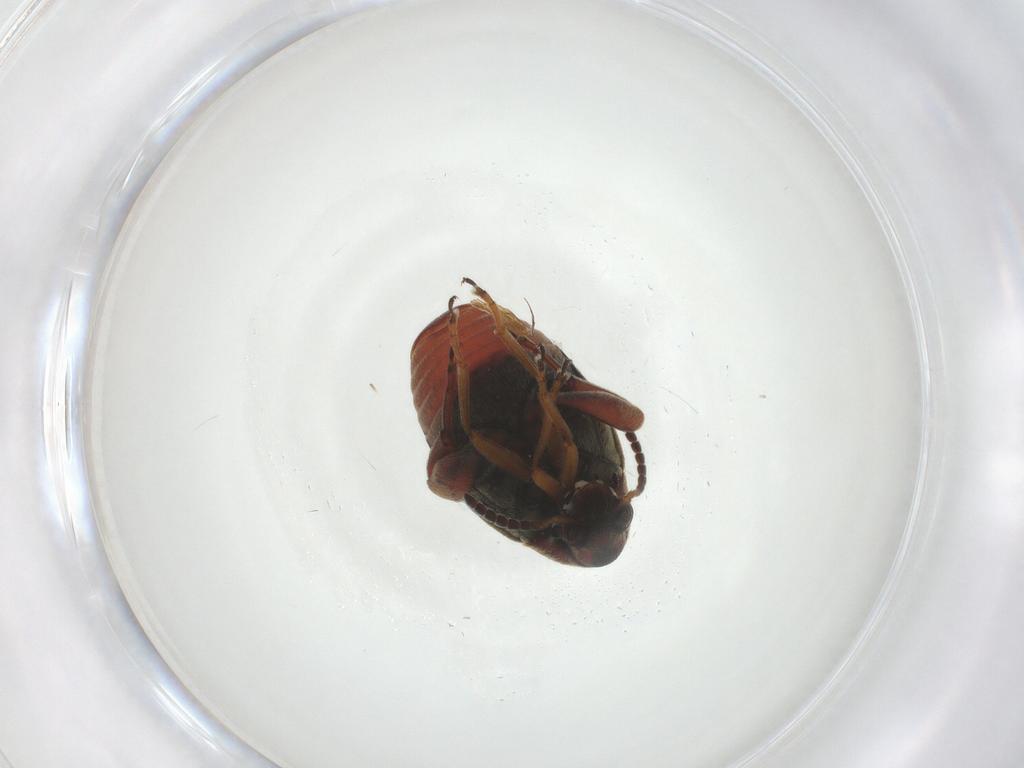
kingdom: Animalia
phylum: Arthropoda
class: Insecta
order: Coleoptera
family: Chrysomelidae
